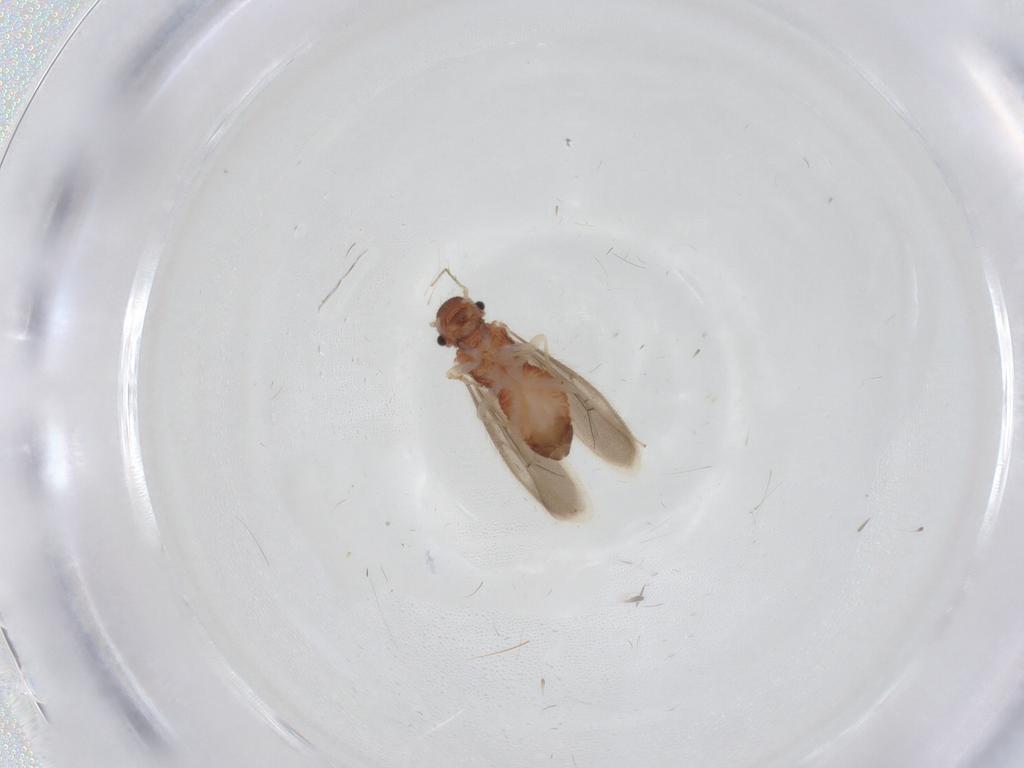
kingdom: Animalia
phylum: Arthropoda
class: Insecta
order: Psocodea
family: Archipsocidae
